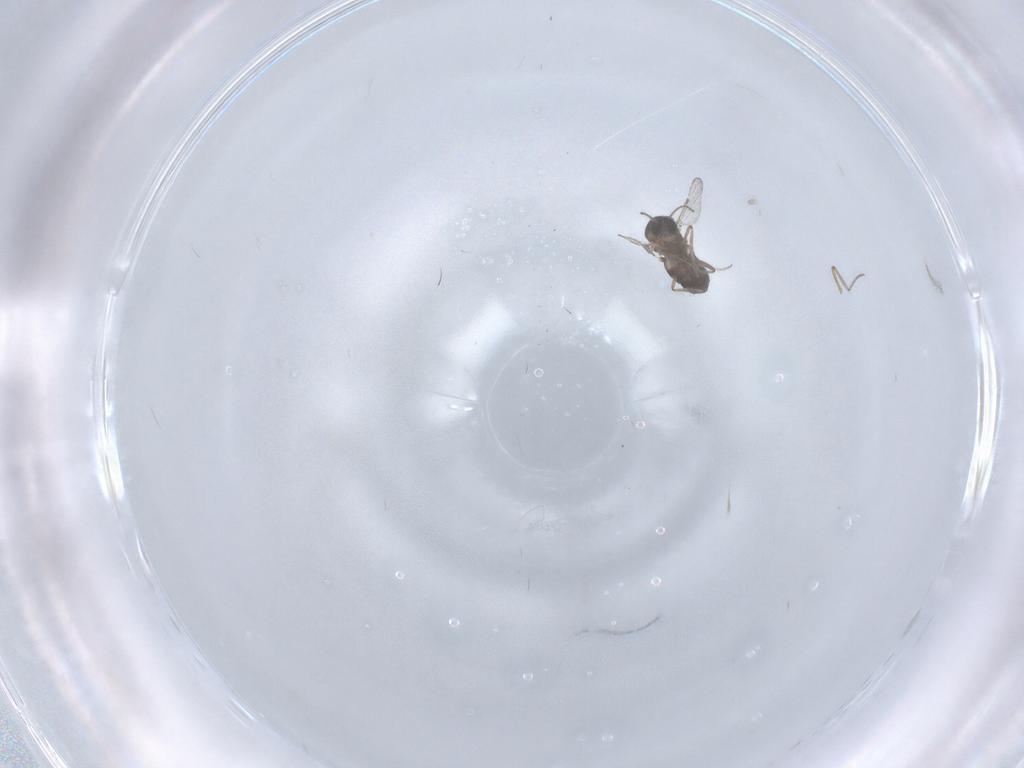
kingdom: Animalia
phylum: Arthropoda
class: Insecta
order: Diptera
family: Ceratopogonidae
